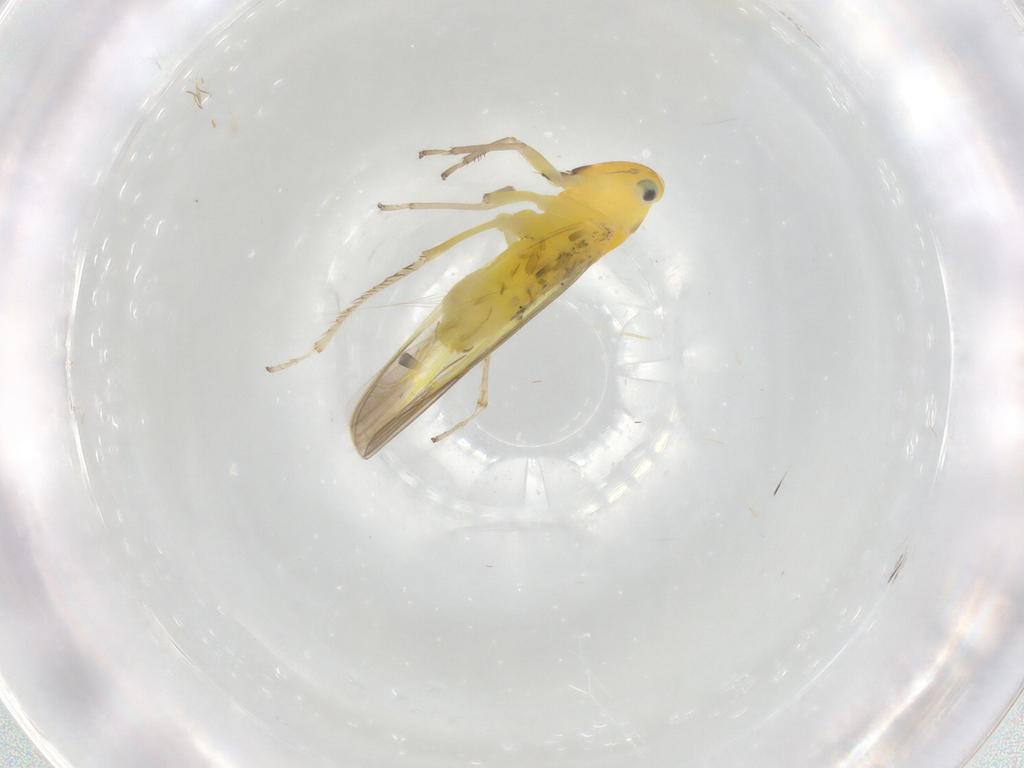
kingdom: Animalia
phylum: Arthropoda
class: Insecta
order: Hemiptera
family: Cicadellidae
